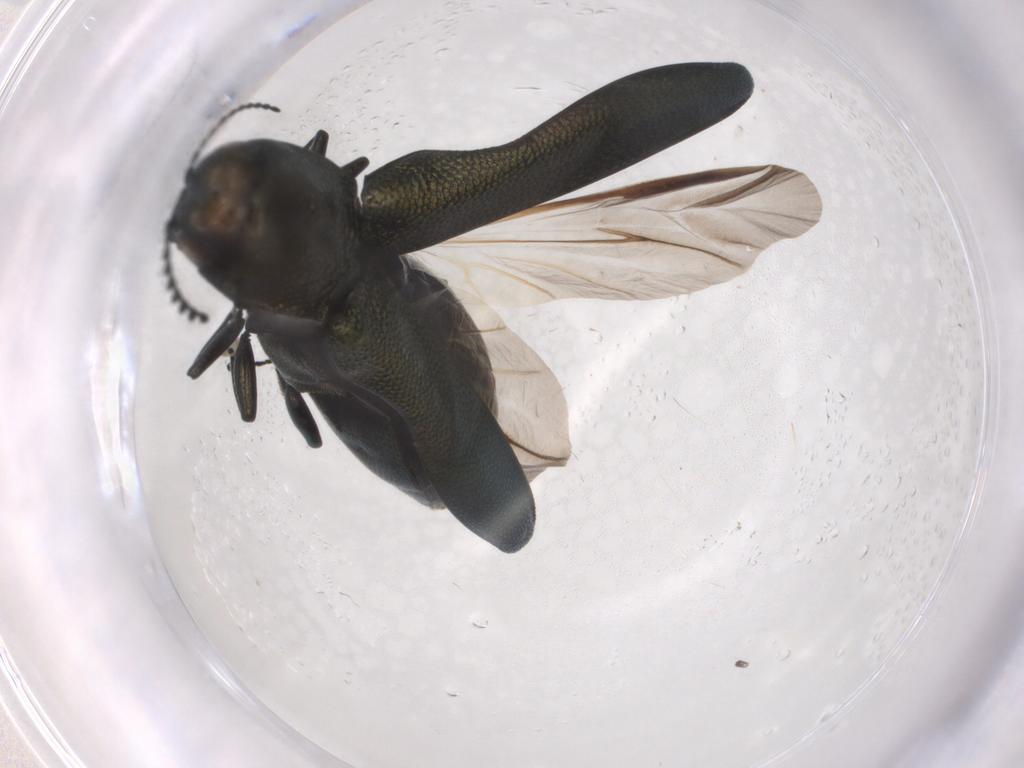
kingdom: Animalia
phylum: Arthropoda
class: Insecta
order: Coleoptera
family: Buprestidae
